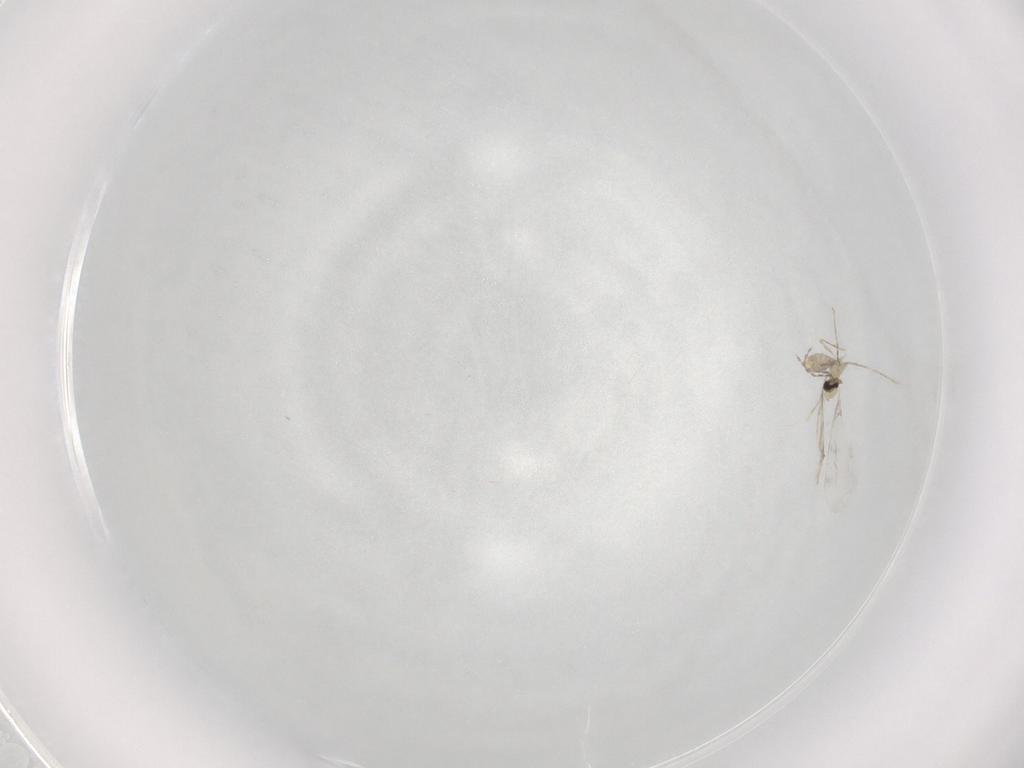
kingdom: Animalia
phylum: Arthropoda
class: Insecta
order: Diptera
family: Cecidomyiidae
